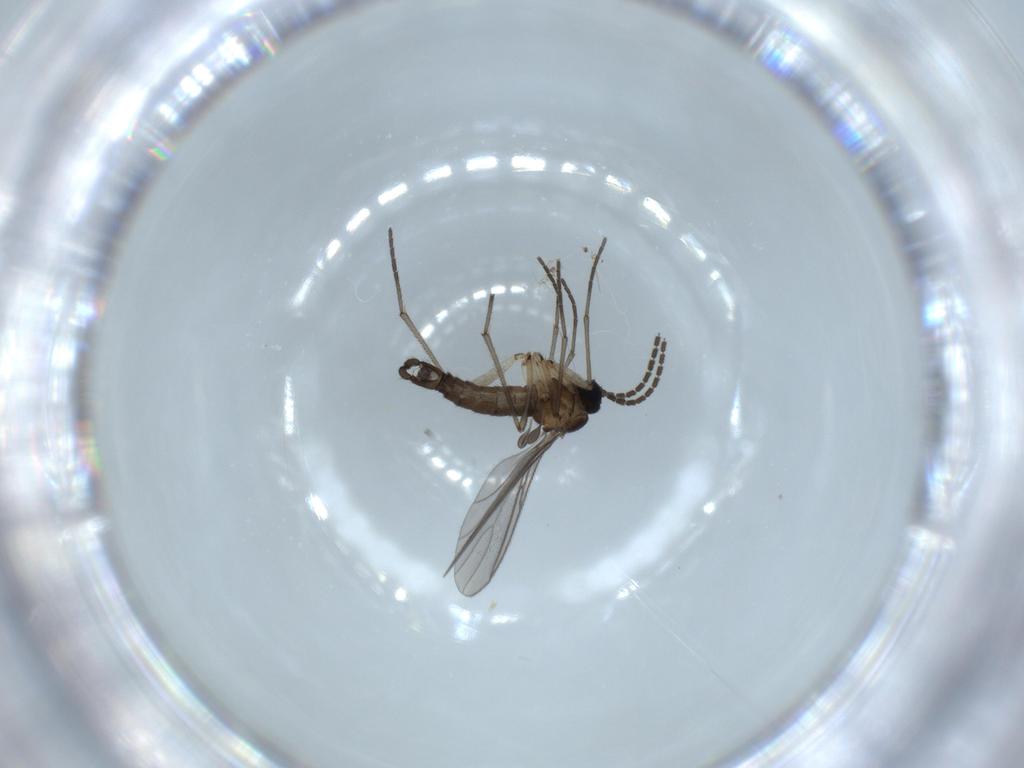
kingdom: Animalia
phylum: Arthropoda
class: Insecta
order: Diptera
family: Sciaridae
